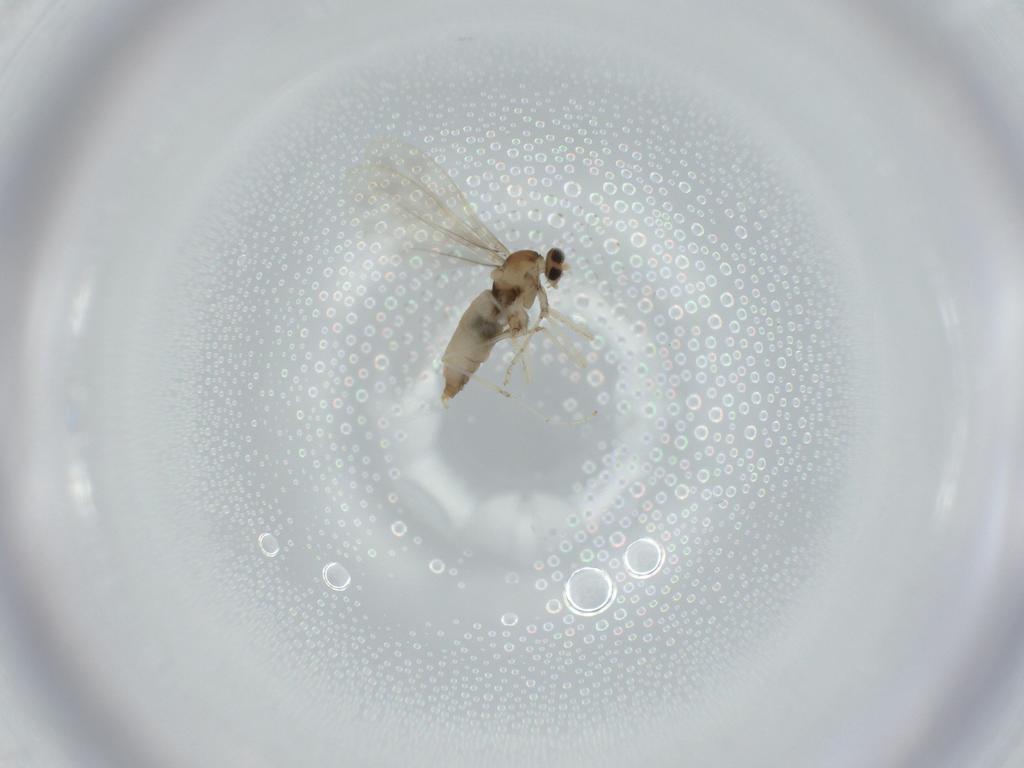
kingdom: Animalia
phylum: Arthropoda
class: Insecta
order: Diptera
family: Cecidomyiidae
